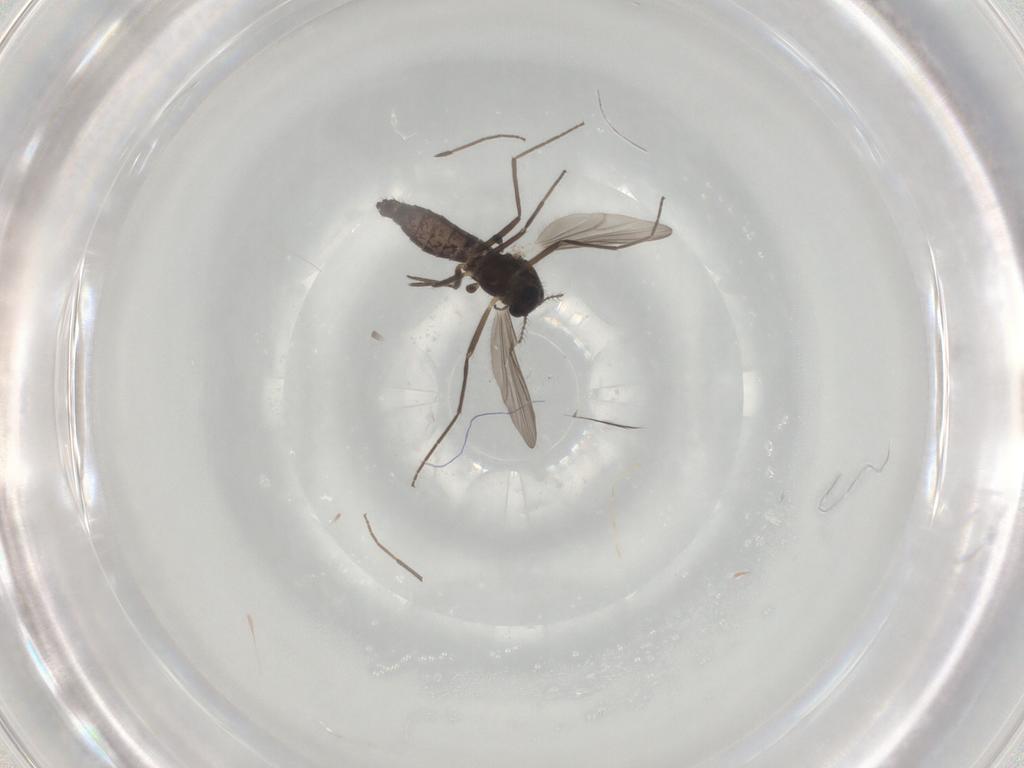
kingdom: Animalia
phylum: Arthropoda
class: Insecta
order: Diptera
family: Chironomidae
